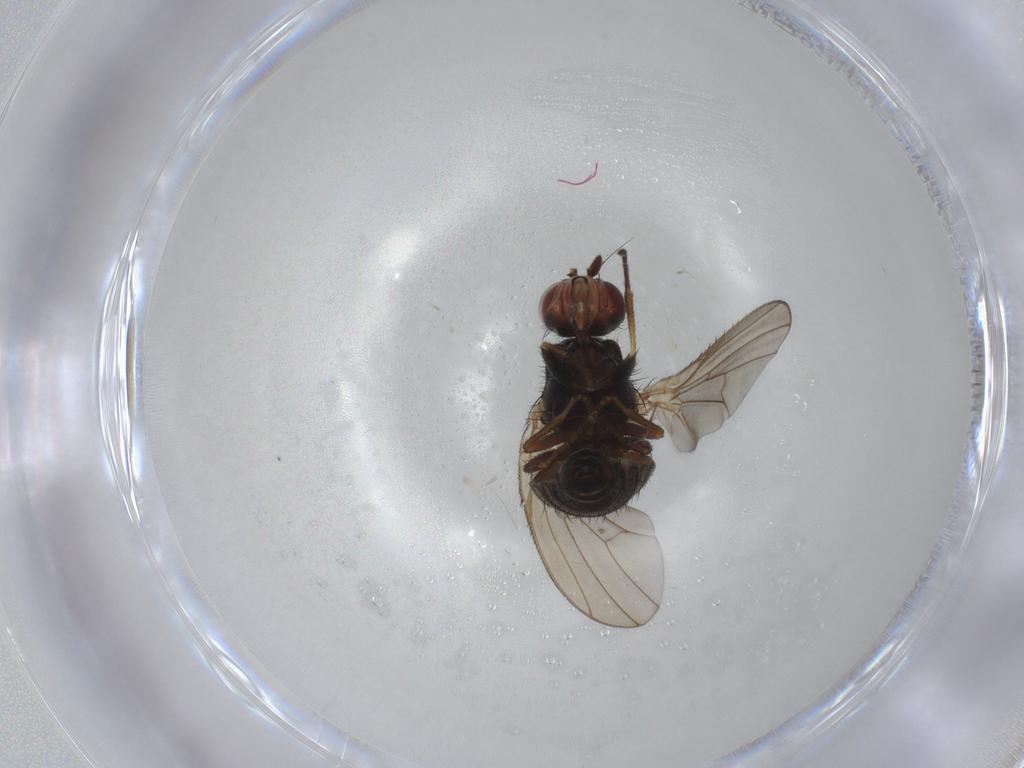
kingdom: Animalia
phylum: Arthropoda
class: Insecta
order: Diptera
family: Heleomyzidae
